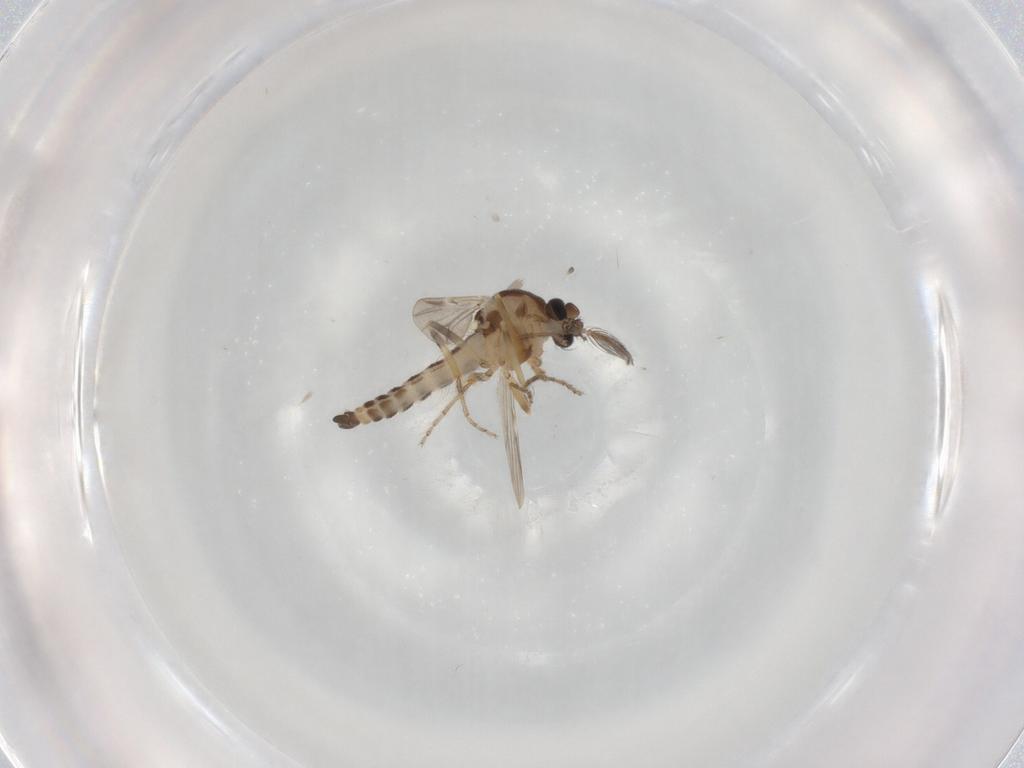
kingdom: Animalia
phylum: Arthropoda
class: Insecta
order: Diptera
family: Ceratopogonidae
